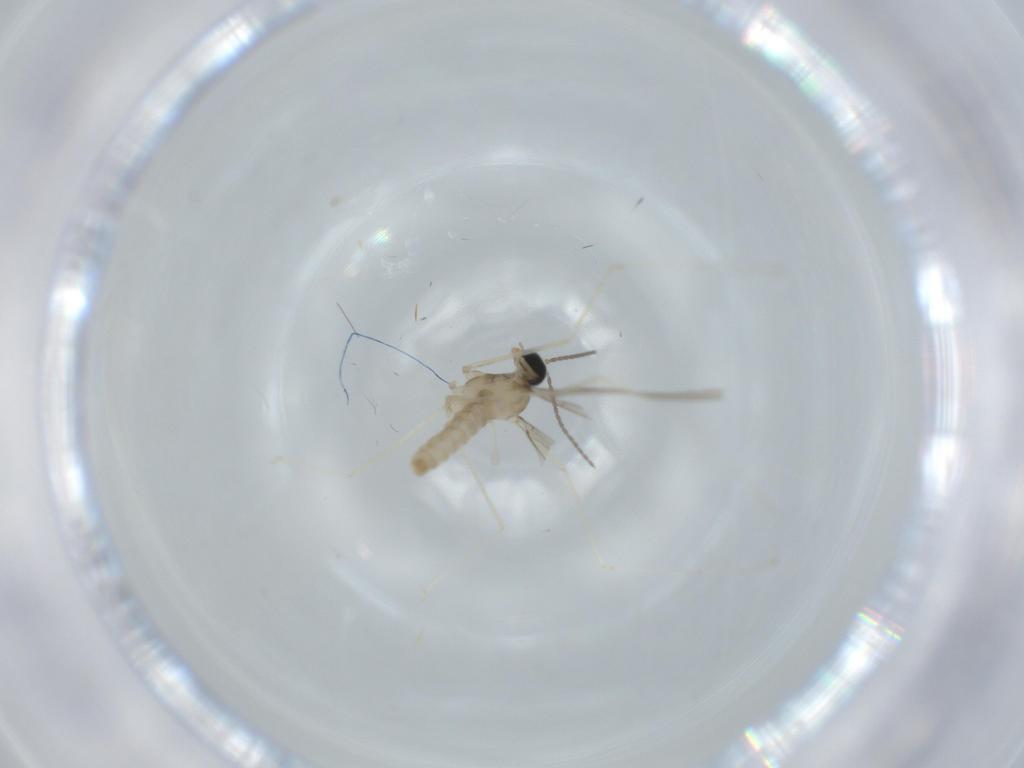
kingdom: Animalia
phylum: Arthropoda
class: Insecta
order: Diptera
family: Cecidomyiidae
